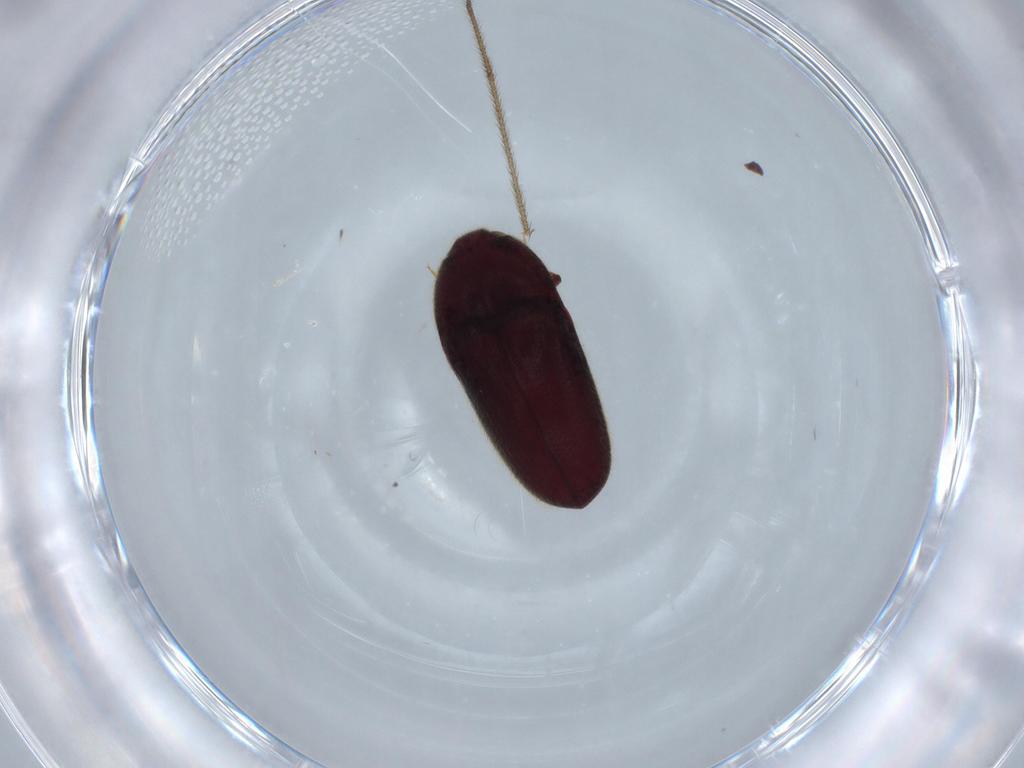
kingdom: Animalia
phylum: Arthropoda
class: Insecta
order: Coleoptera
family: Throscidae
